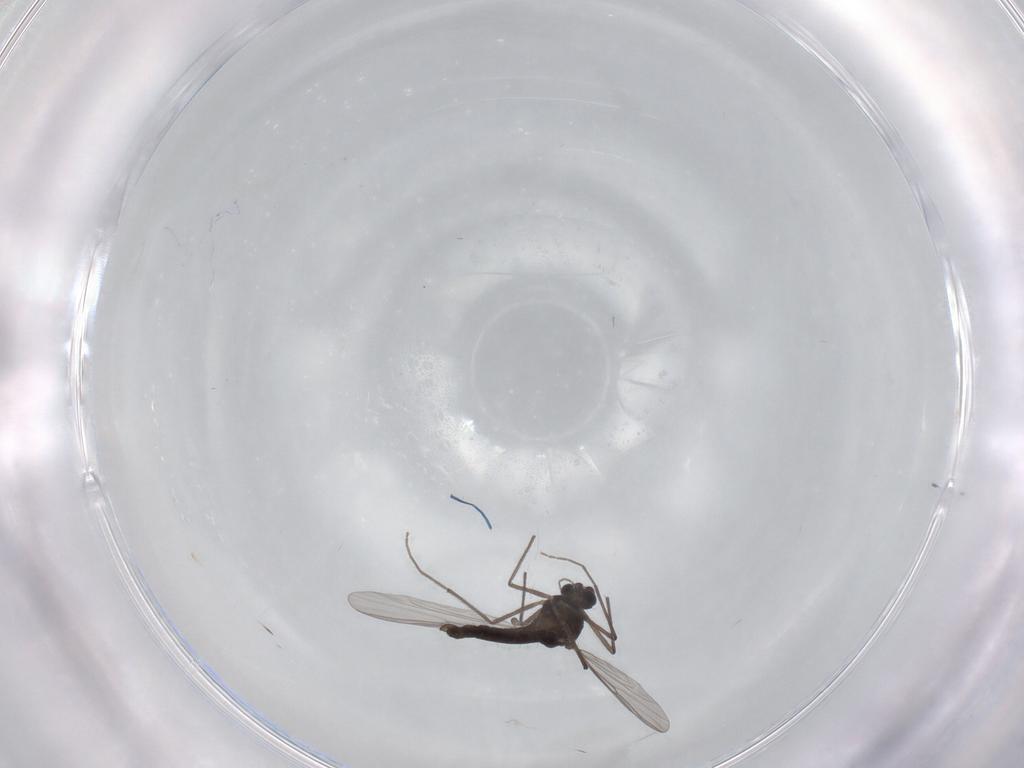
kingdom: Animalia
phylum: Arthropoda
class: Insecta
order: Diptera
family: Chironomidae
